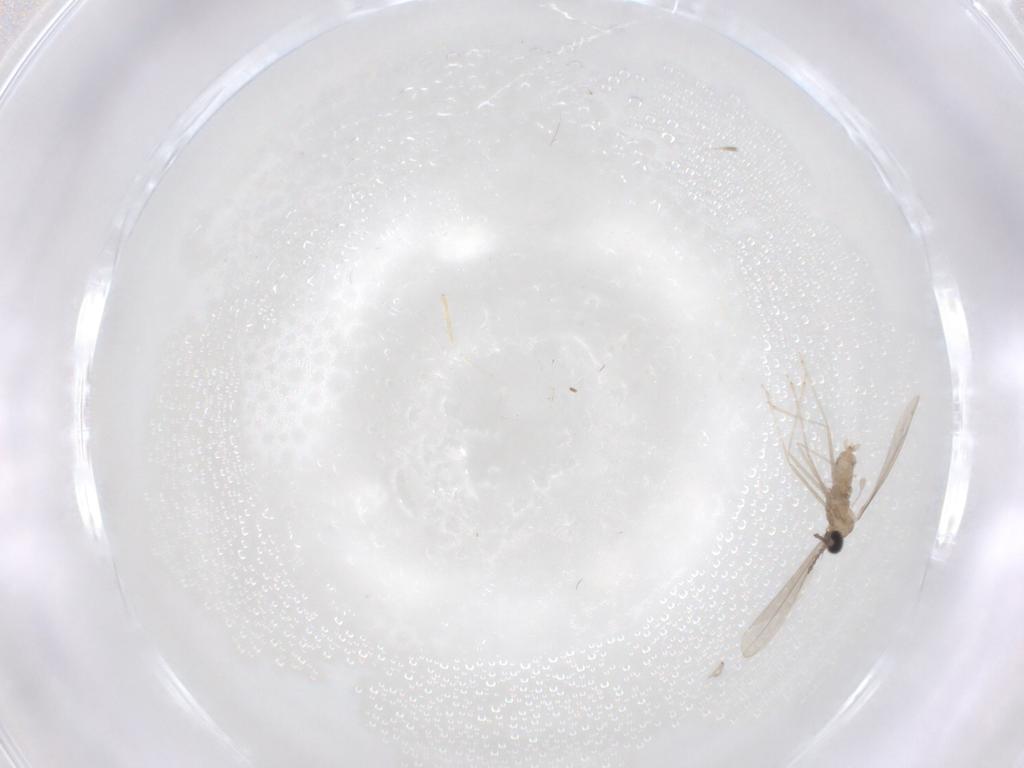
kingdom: Animalia
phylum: Arthropoda
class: Insecta
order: Diptera
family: Cecidomyiidae
